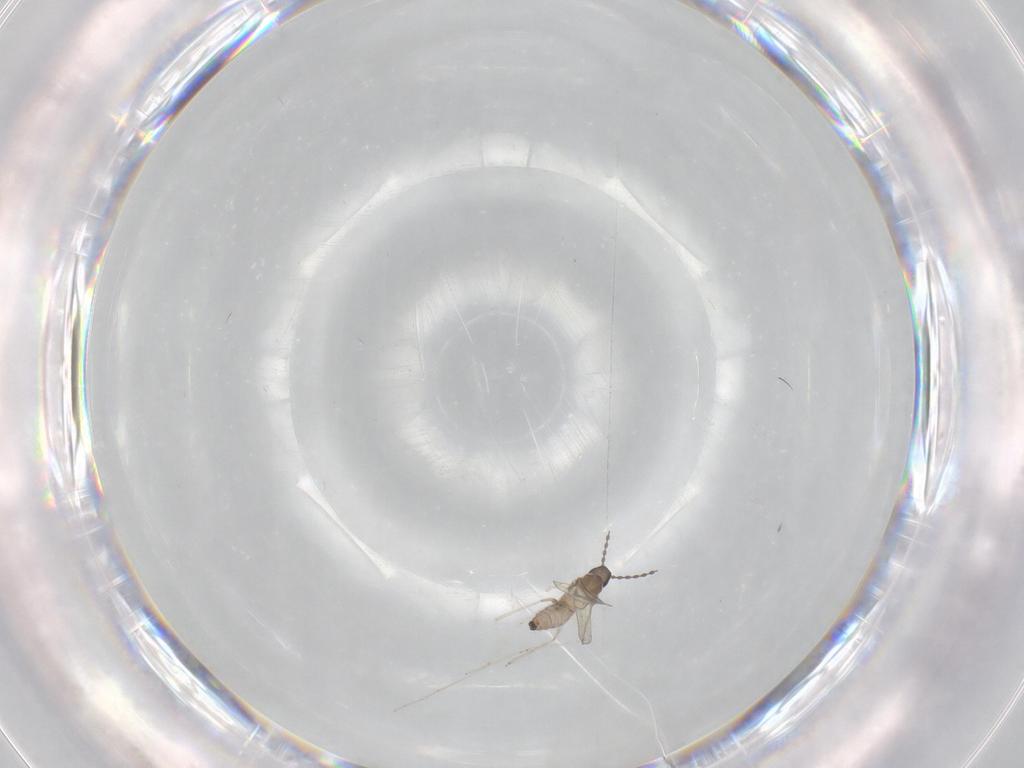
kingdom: Animalia
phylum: Arthropoda
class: Insecta
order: Diptera
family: Cecidomyiidae
